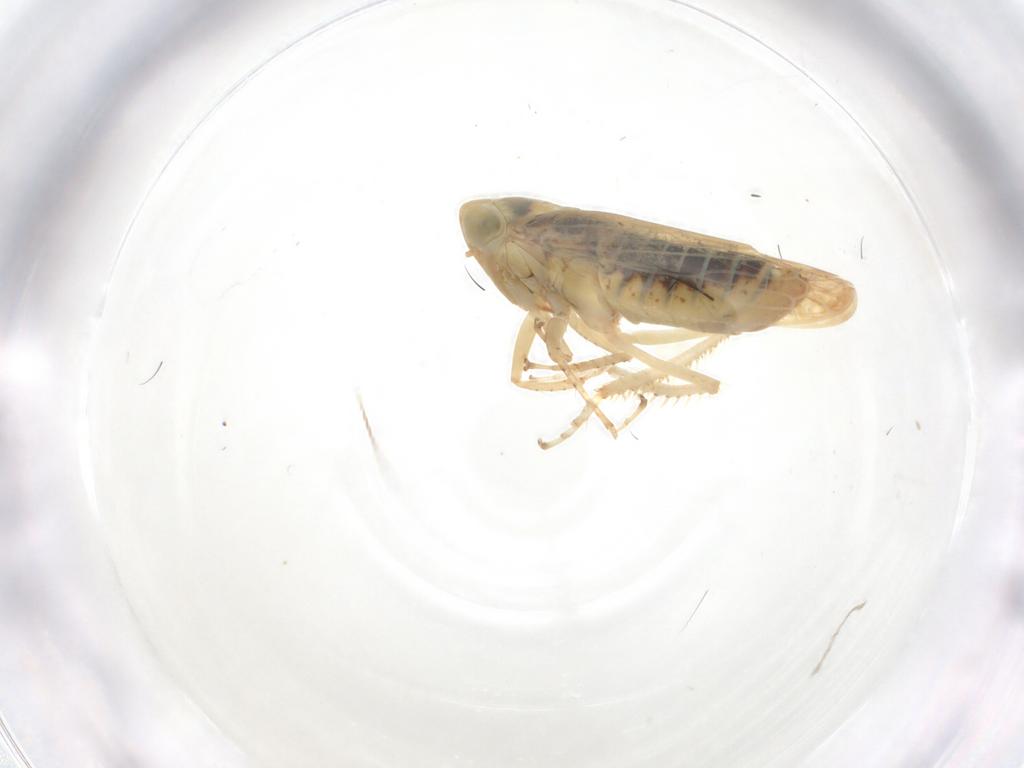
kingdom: Animalia
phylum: Arthropoda
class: Insecta
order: Hemiptera
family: Cicadellidae
